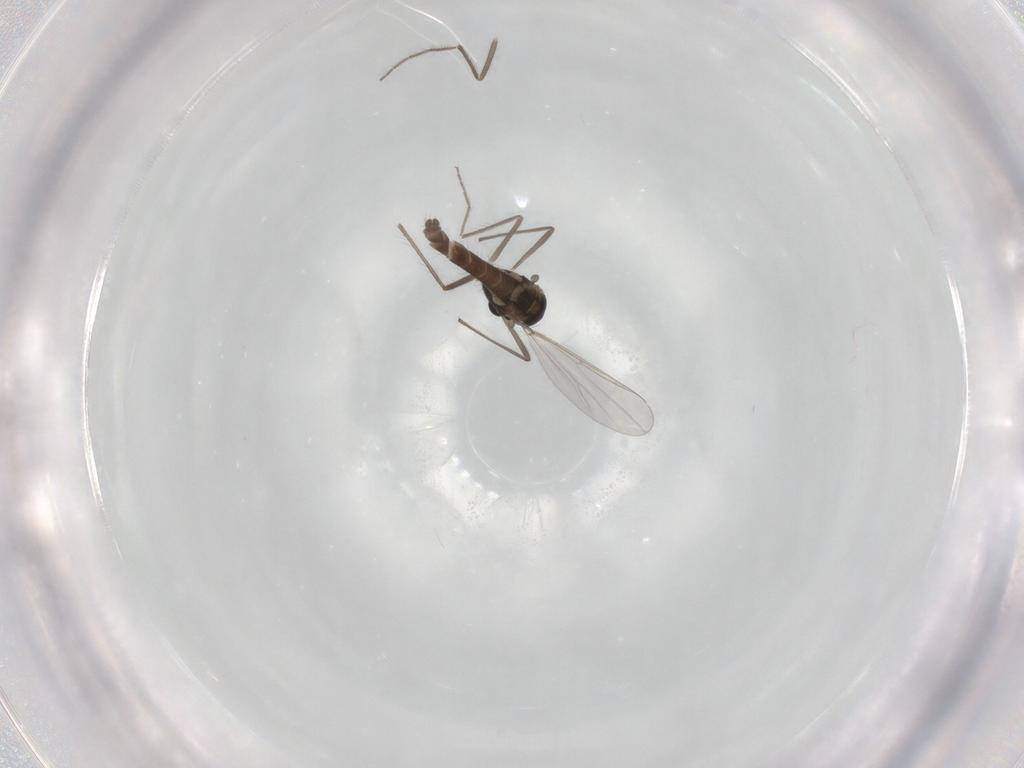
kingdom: Animalia
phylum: Arthropoda
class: Insecta
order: Diptera
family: Chironomidae
